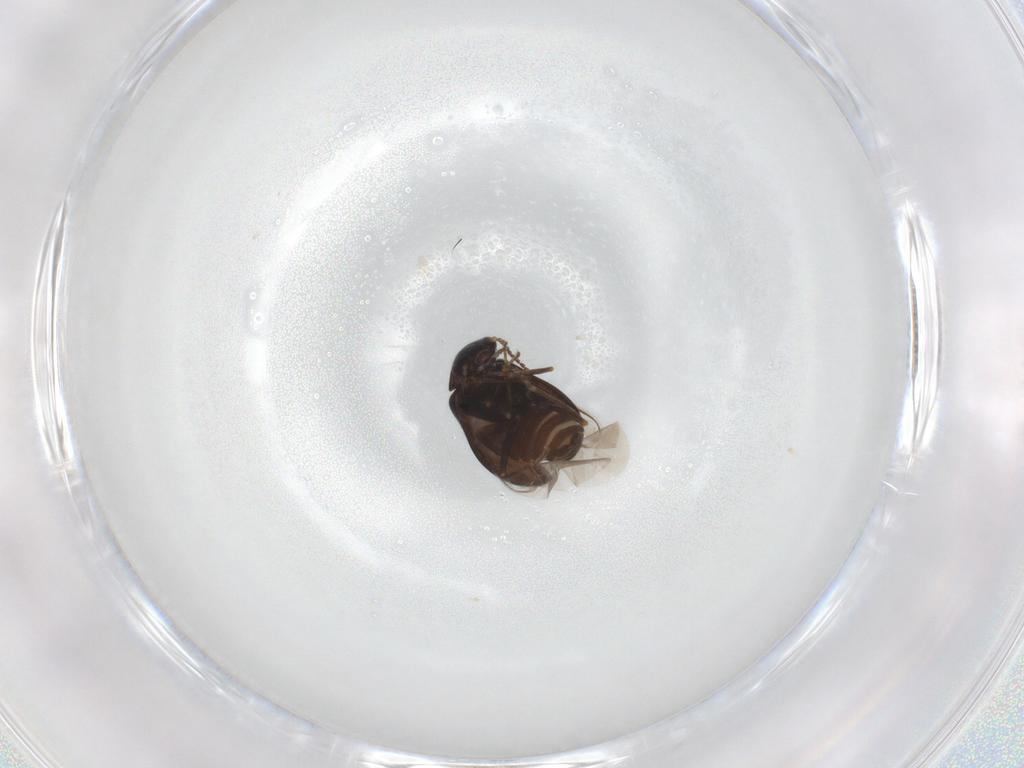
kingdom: Animalia
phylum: Arthropoda
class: Insecta
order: Coleoptera
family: Melyridae
